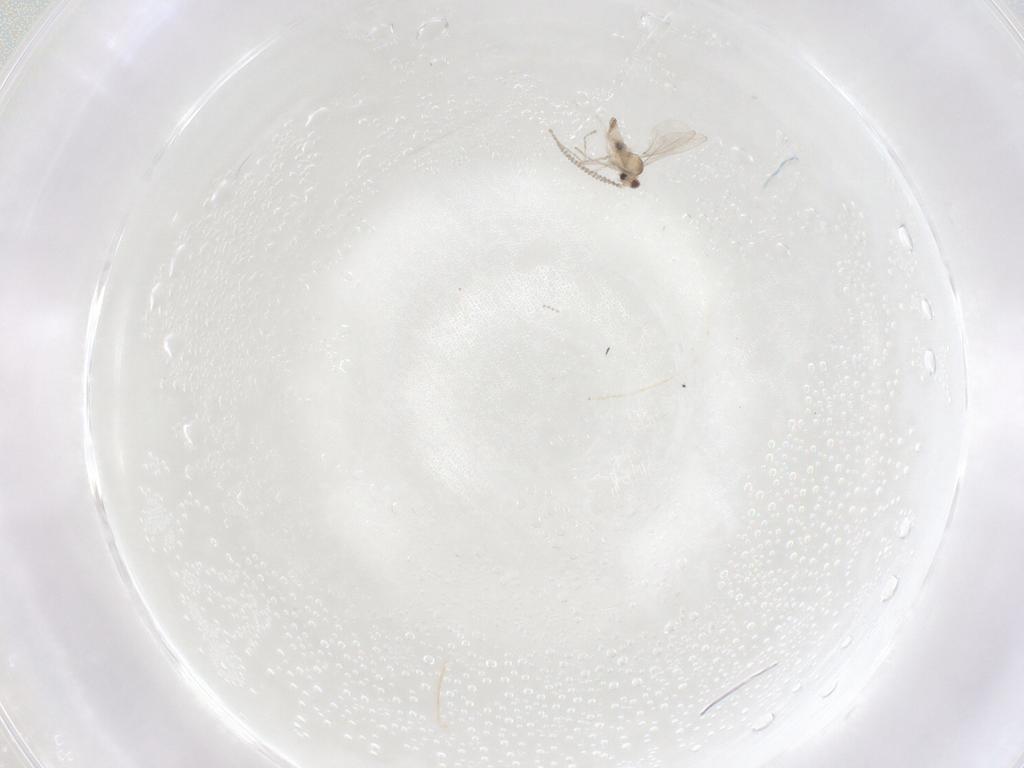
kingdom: Animalia
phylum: Arthropoda
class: Insecta
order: Diptera
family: Cecidomyiidae
